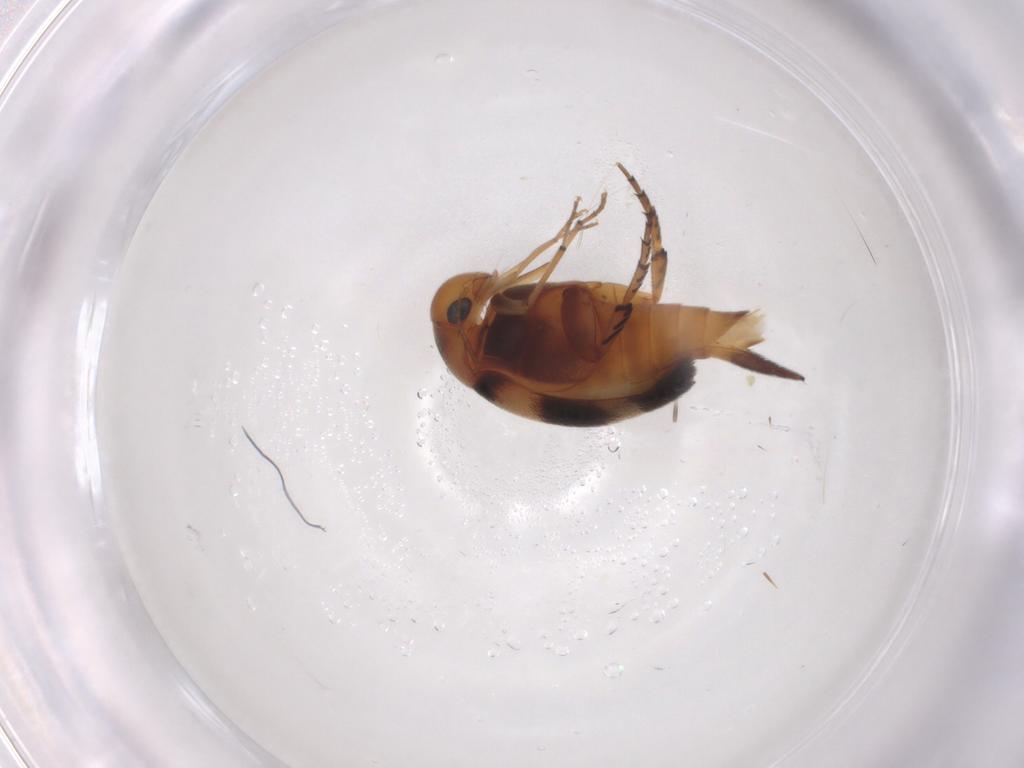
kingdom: Animalia
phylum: Arthropoda
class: Insecta
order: Coleoptera
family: Mordellidae
